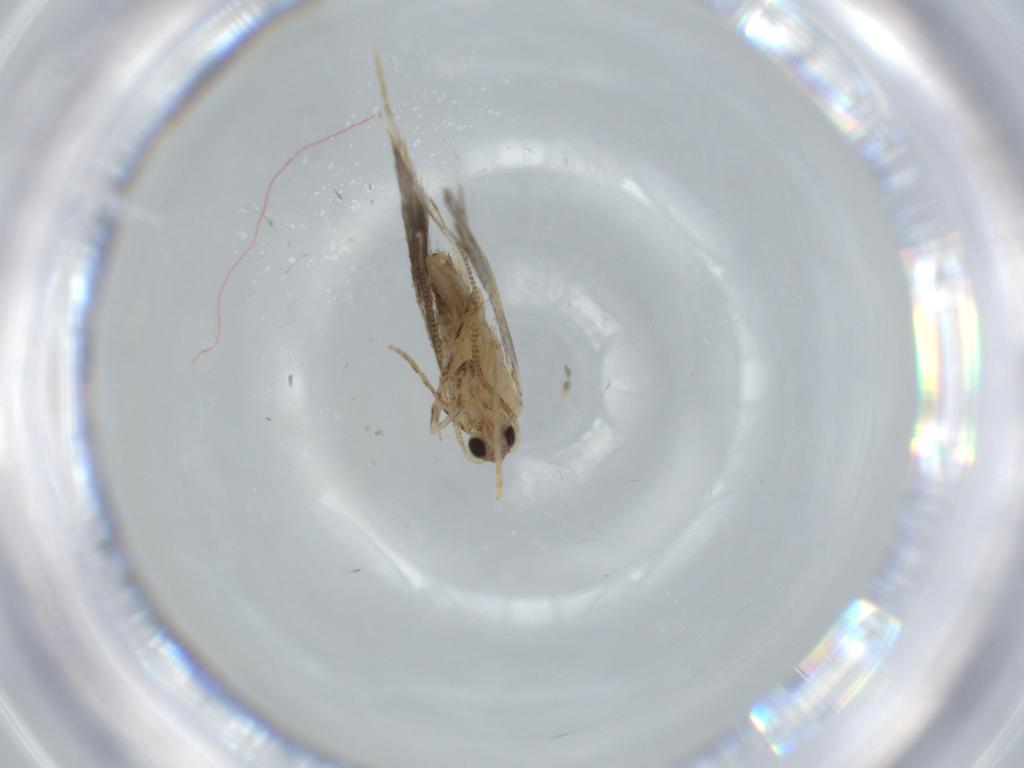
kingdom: Animalia
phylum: Arthropoda
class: Insecta
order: Lepidoptera
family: Tineidae
